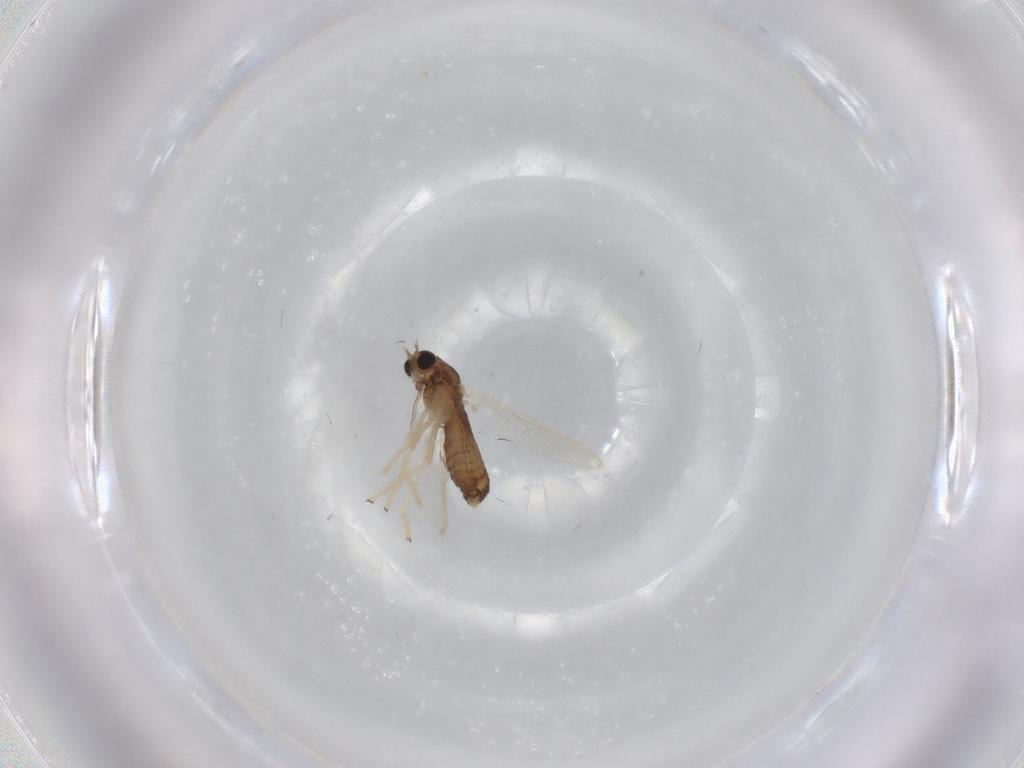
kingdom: Animalia
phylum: Arthropoda
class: Insecta
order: Diptera
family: Chironomidae
